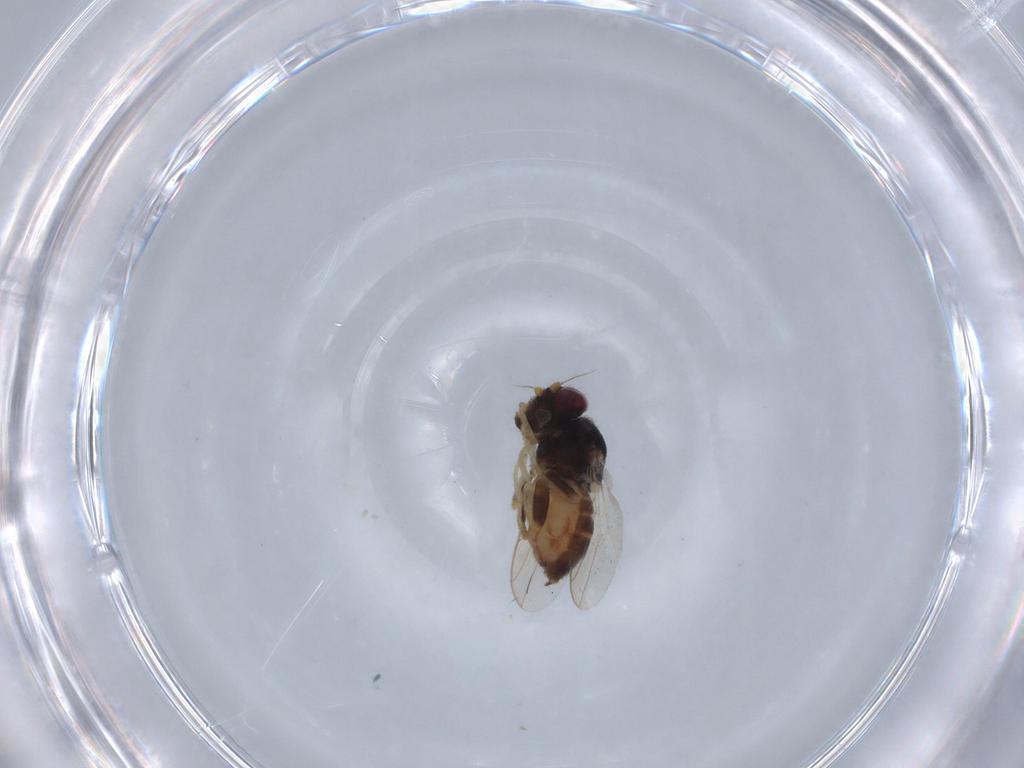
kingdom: Animalia
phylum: Arthropoda
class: Insecta
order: Diptera
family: Chloropidae
